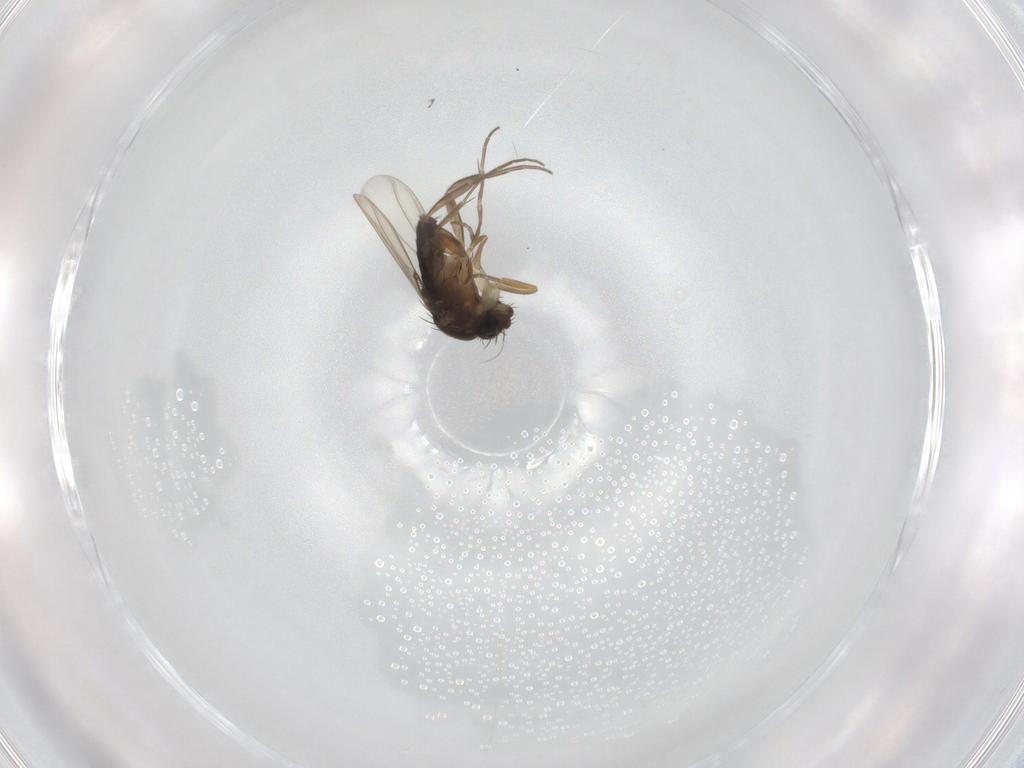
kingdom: Animalia
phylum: Arthropoda
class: Insecta
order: Diptera
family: Phoridae
